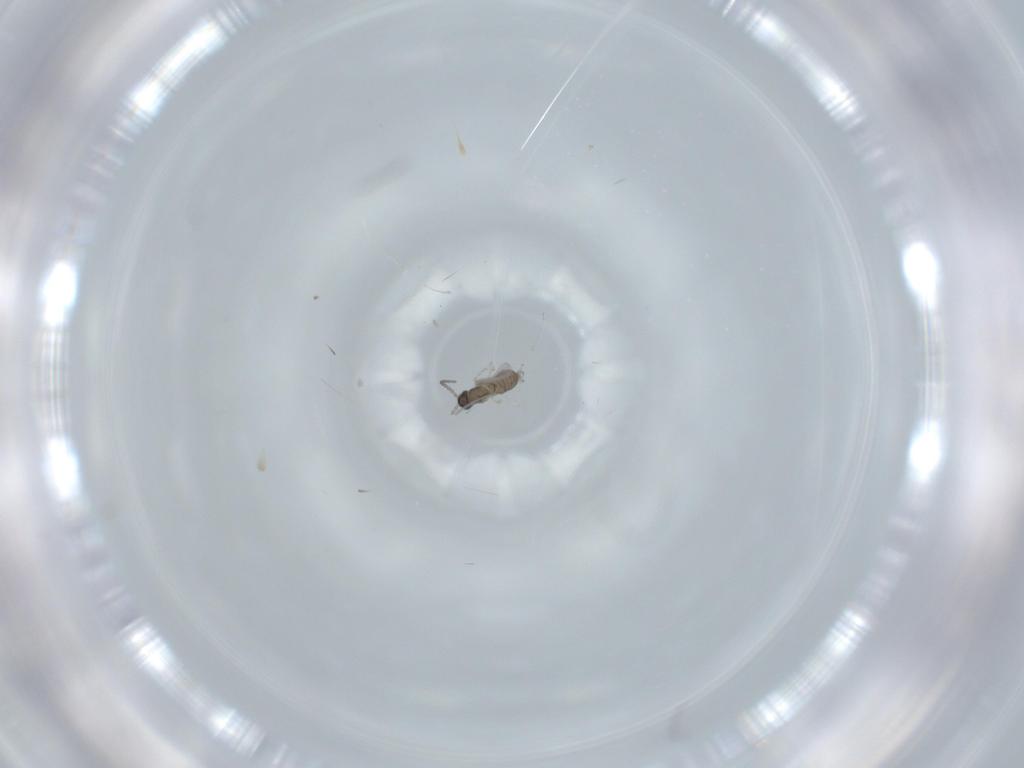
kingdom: Animalia
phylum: Arthropoda
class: Insecta
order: Diptera
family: Cecidomyiidae
